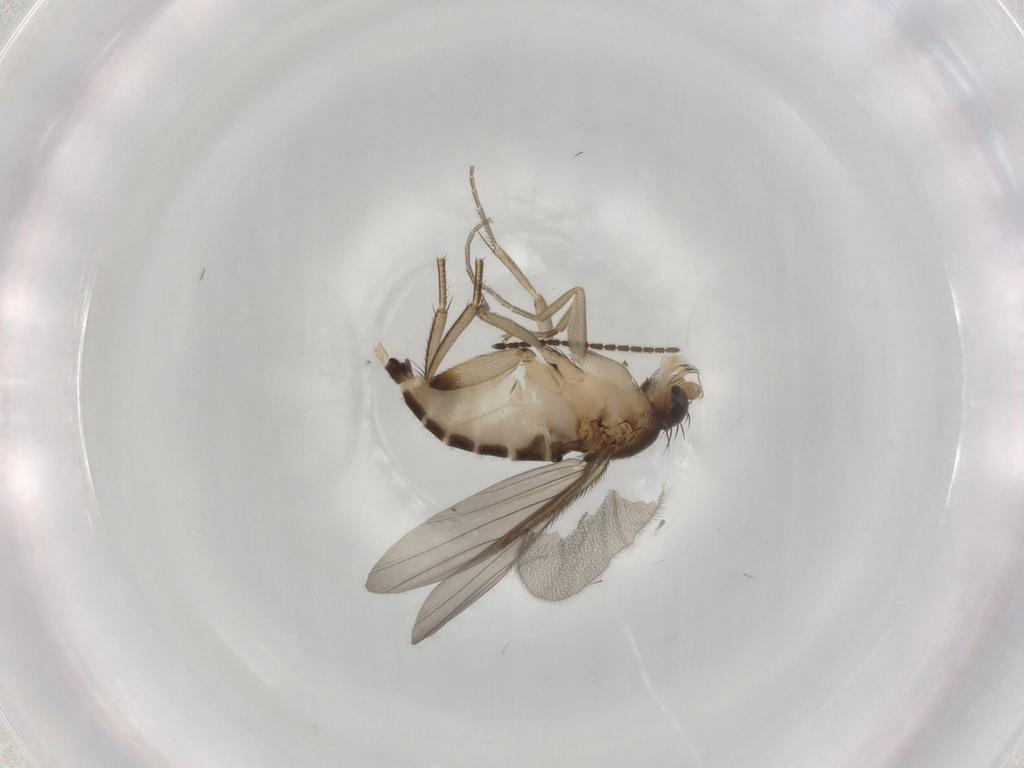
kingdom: Animalia
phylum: Arthropoda
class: Insecta
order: Diptera
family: Phoridae
